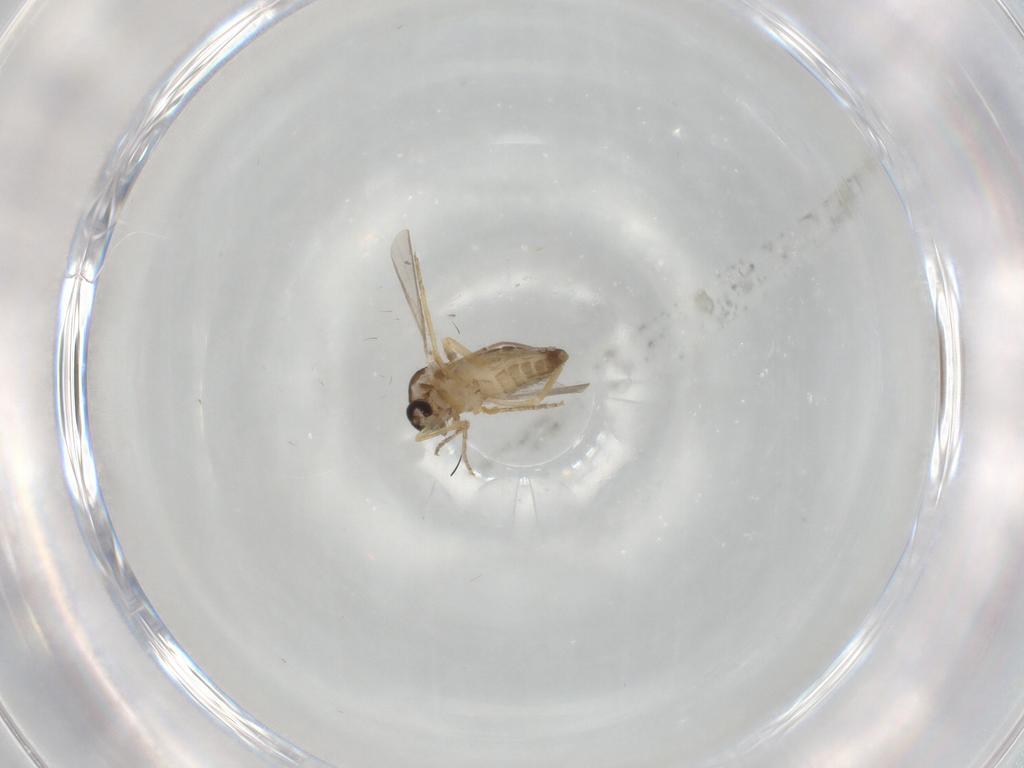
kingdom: Animalia
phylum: Arthropoda
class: Insecta
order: Diptera
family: Ceratopogonidae
